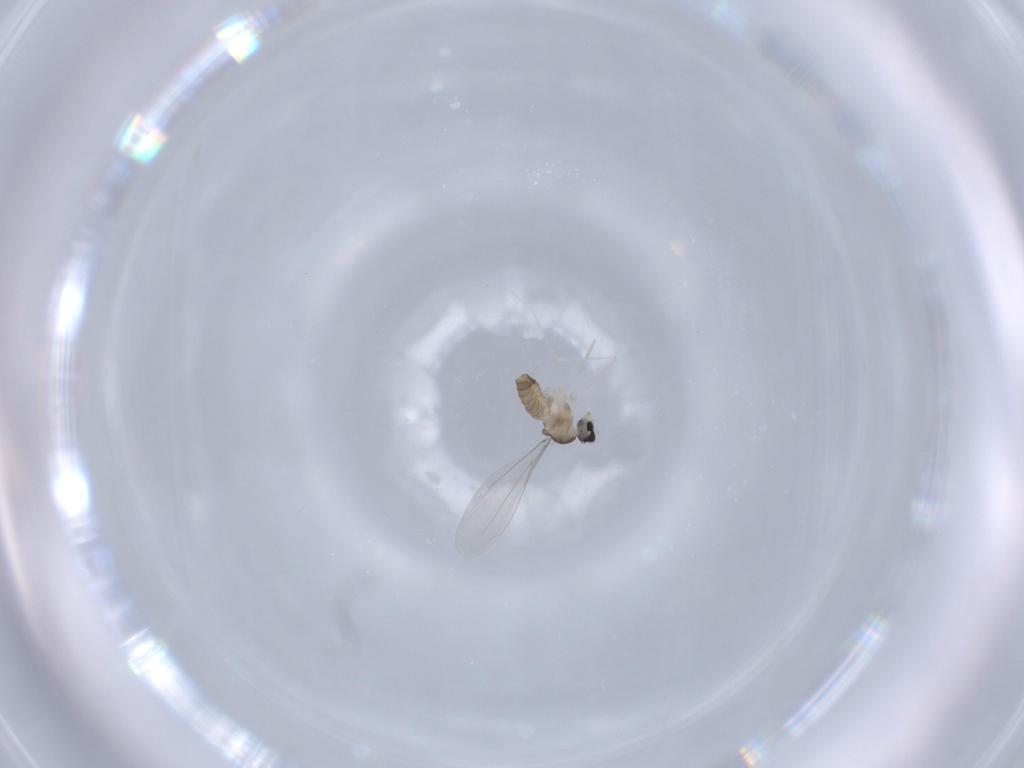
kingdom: Animalia
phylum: Arthropoda
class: Insecta
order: Diptera
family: Cecidomyiidae
